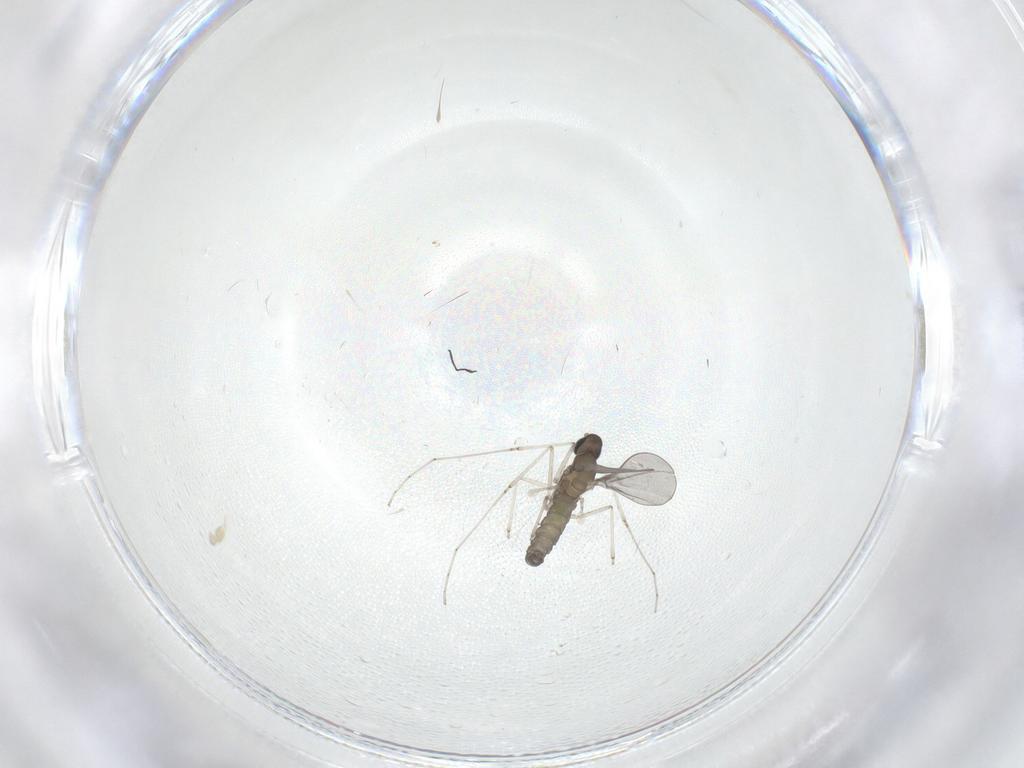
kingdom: Animalia
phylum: Arthropoda
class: Insecta
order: Diptera
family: Cecidomyiidae
